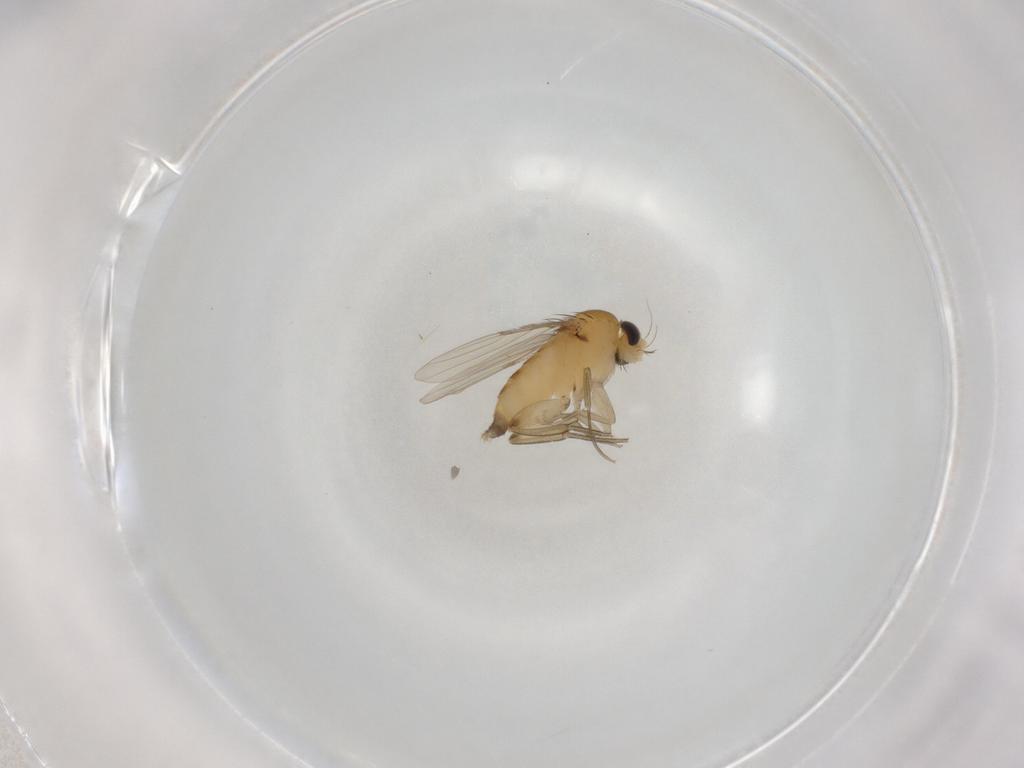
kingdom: Animalia
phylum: Arthropoda
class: Insecta
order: Diptera
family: Phoridae
